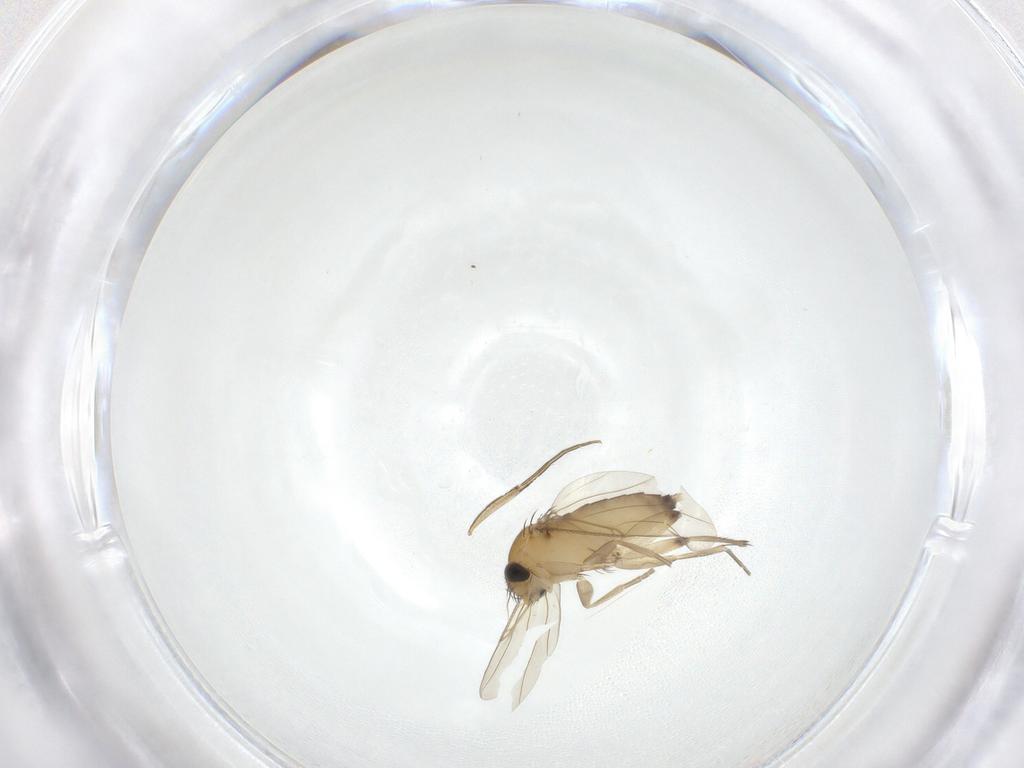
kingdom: Animalia
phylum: Arthropoda
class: Insecta
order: Diptera
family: Phoridae
